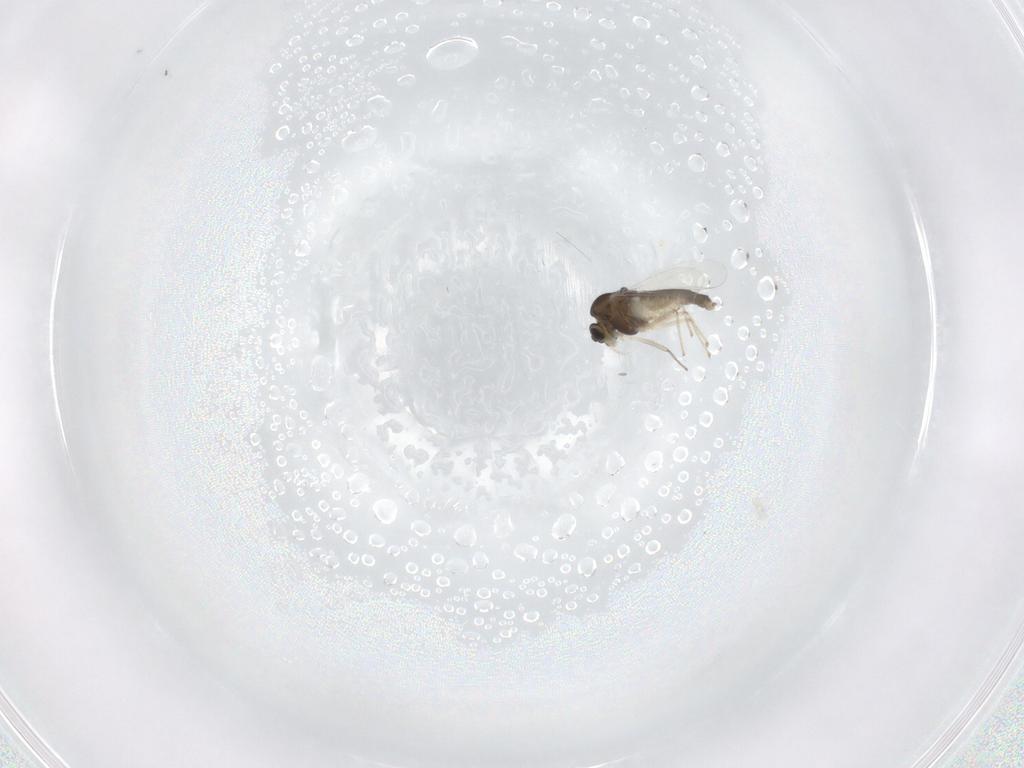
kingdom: Animalia
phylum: Arthropoda
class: Insecta
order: Diptera
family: Chironomidae
